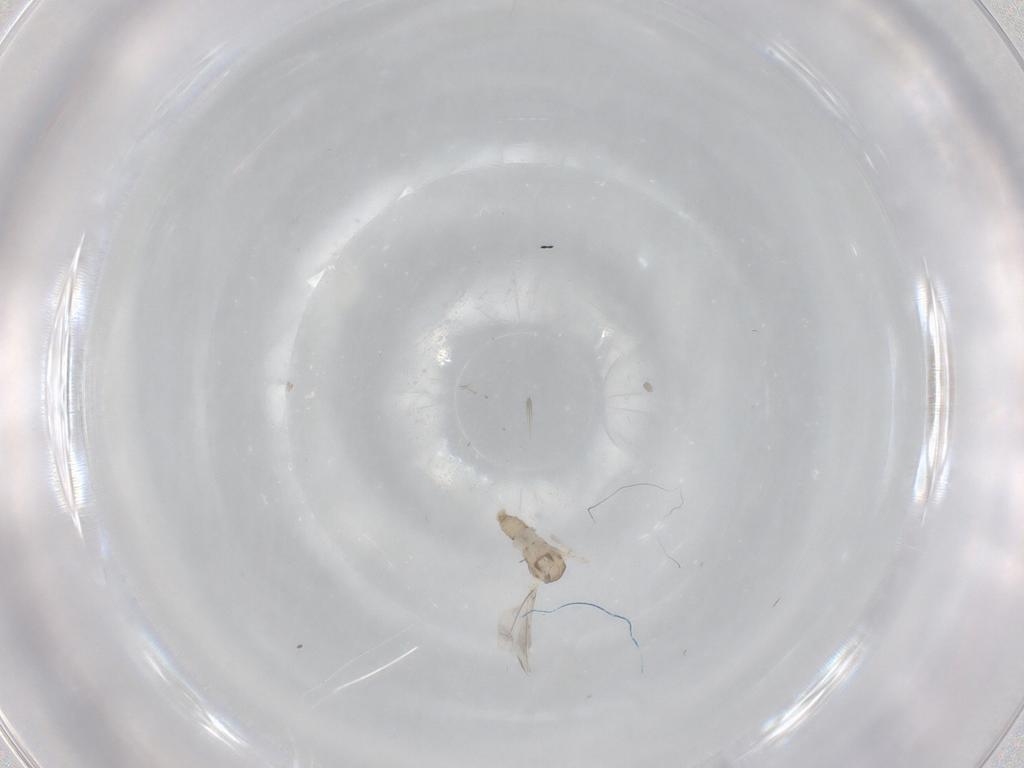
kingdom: Animalia
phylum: Arthropoda
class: Insecta
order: Diptera
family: Cecidomyiidae
